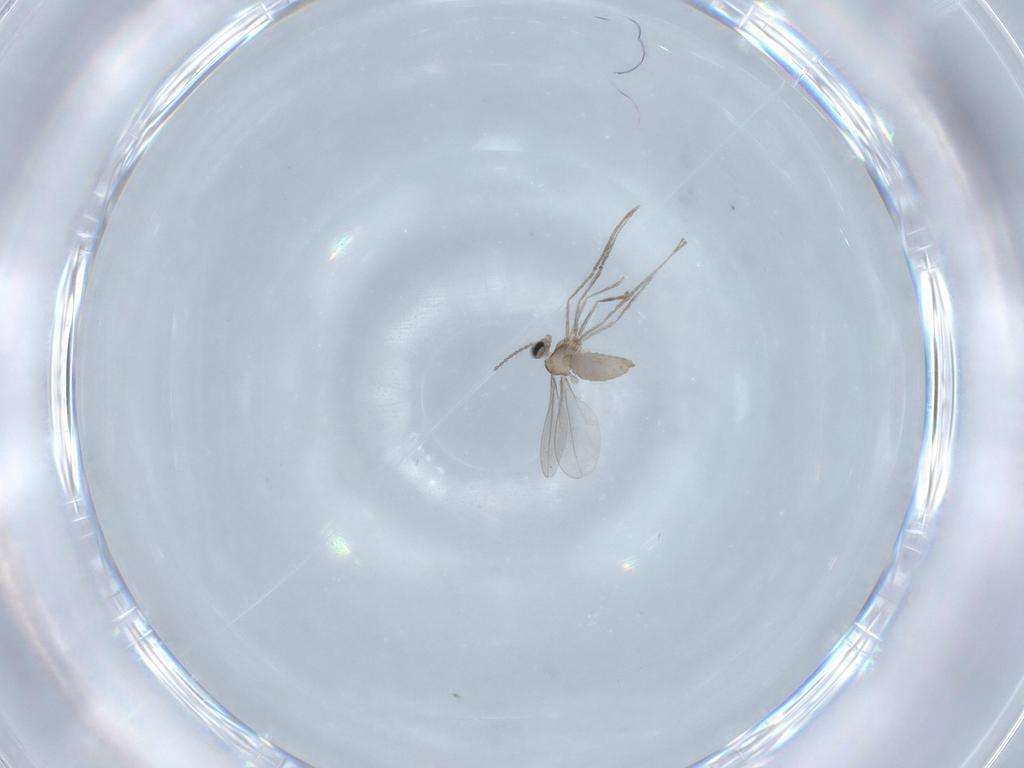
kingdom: Animalia
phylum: Arthropoda
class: Insecta
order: Diptera
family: Cecidomyiidae
